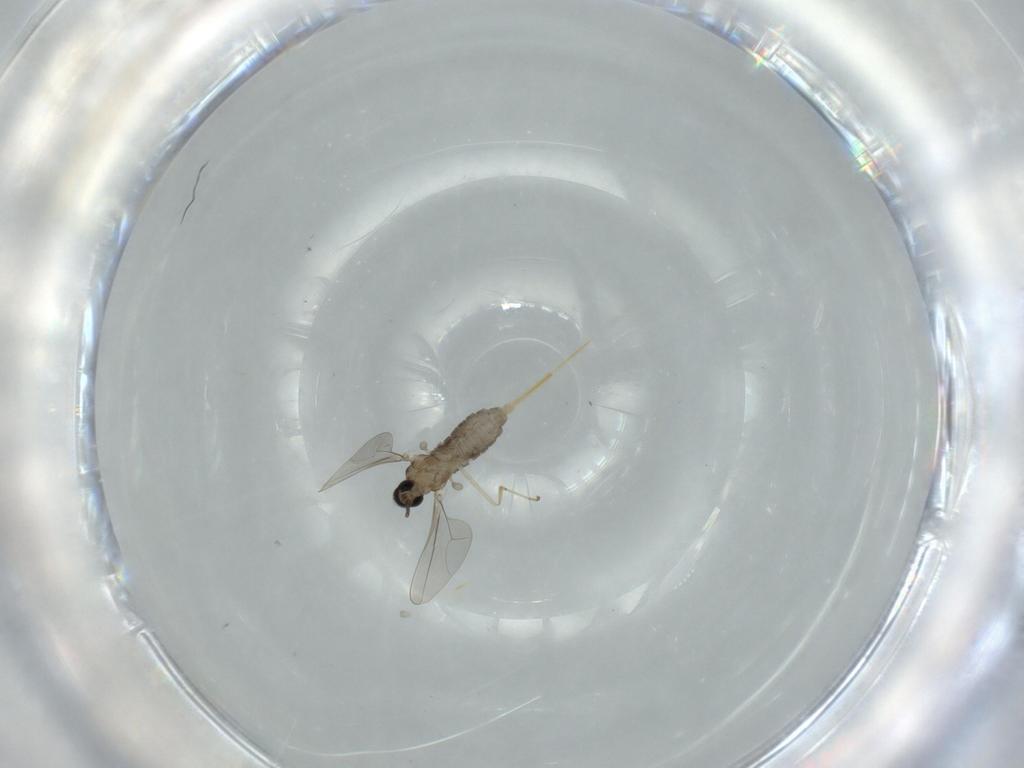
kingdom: Animalia
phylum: Arthropoda
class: Insecta
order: Diptera
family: Cecidomyiidae
